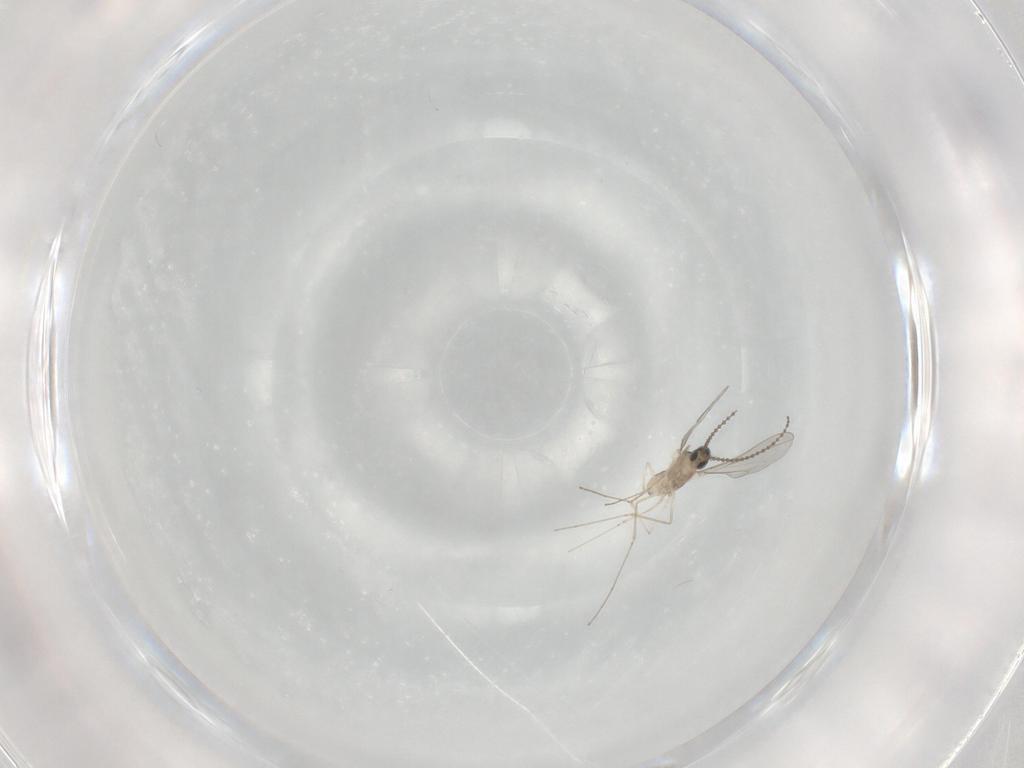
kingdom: Animalia
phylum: Arthropoda
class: Insecta
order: Diptera
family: Cecidomyiidae
